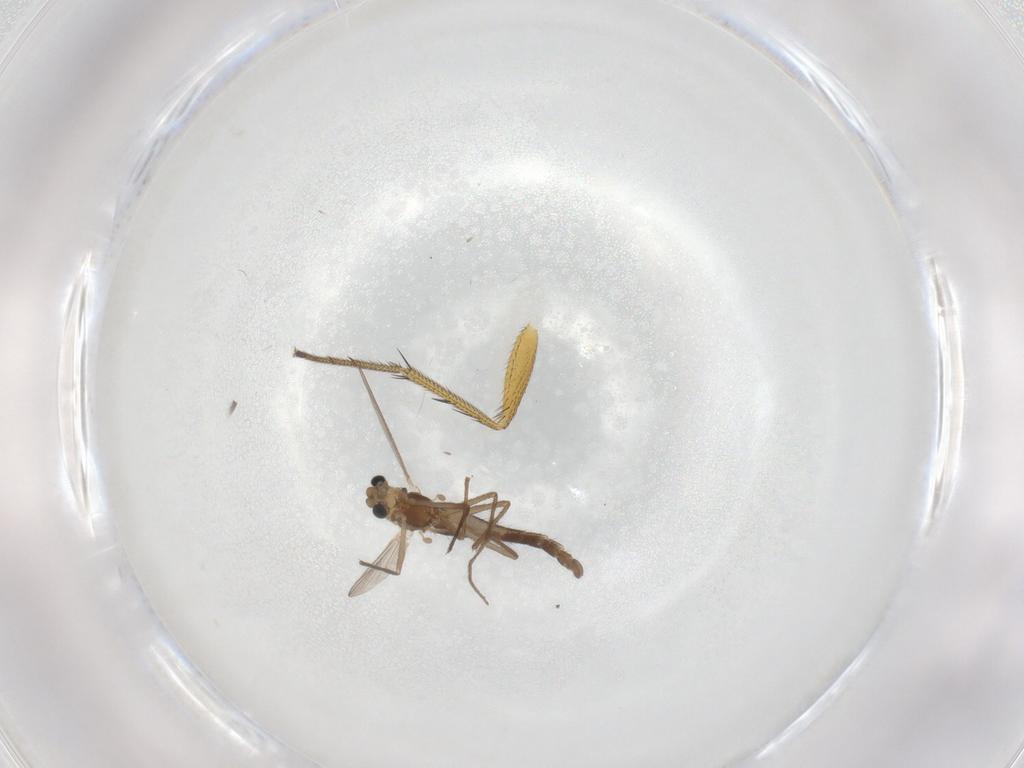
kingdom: Animalia
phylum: Arthropoda
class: Insecta
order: Diptera
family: Chironomidae
